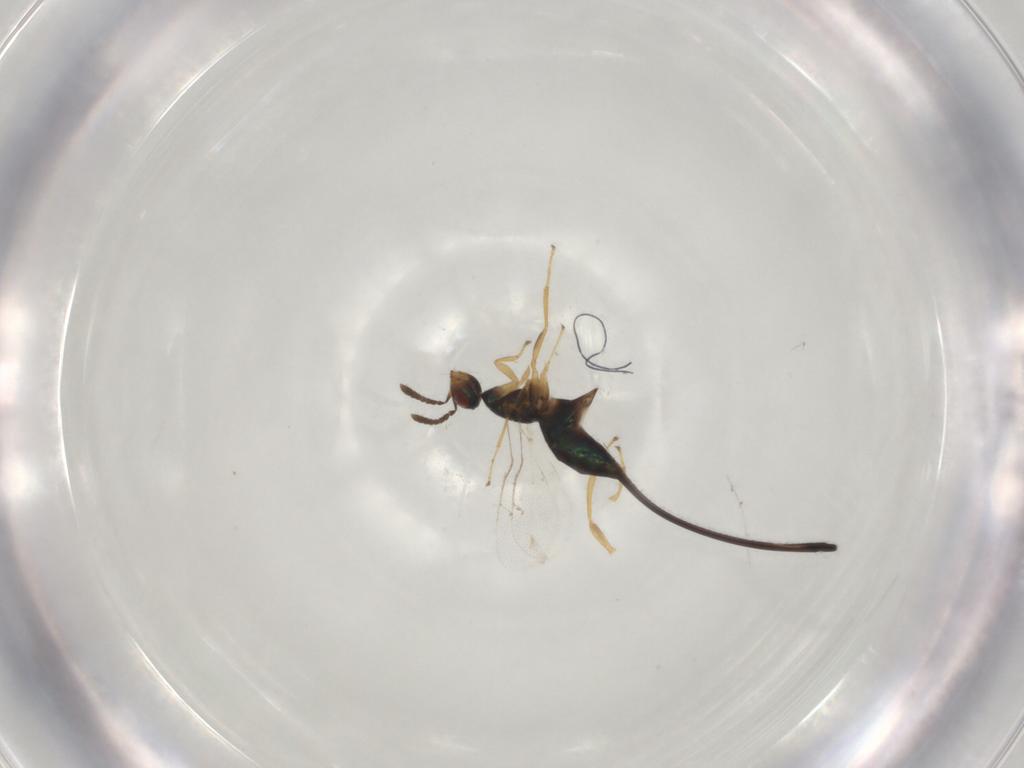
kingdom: Animalia
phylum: Arthropoda
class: Insecta
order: Hymenoptera
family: Pteromalidae
